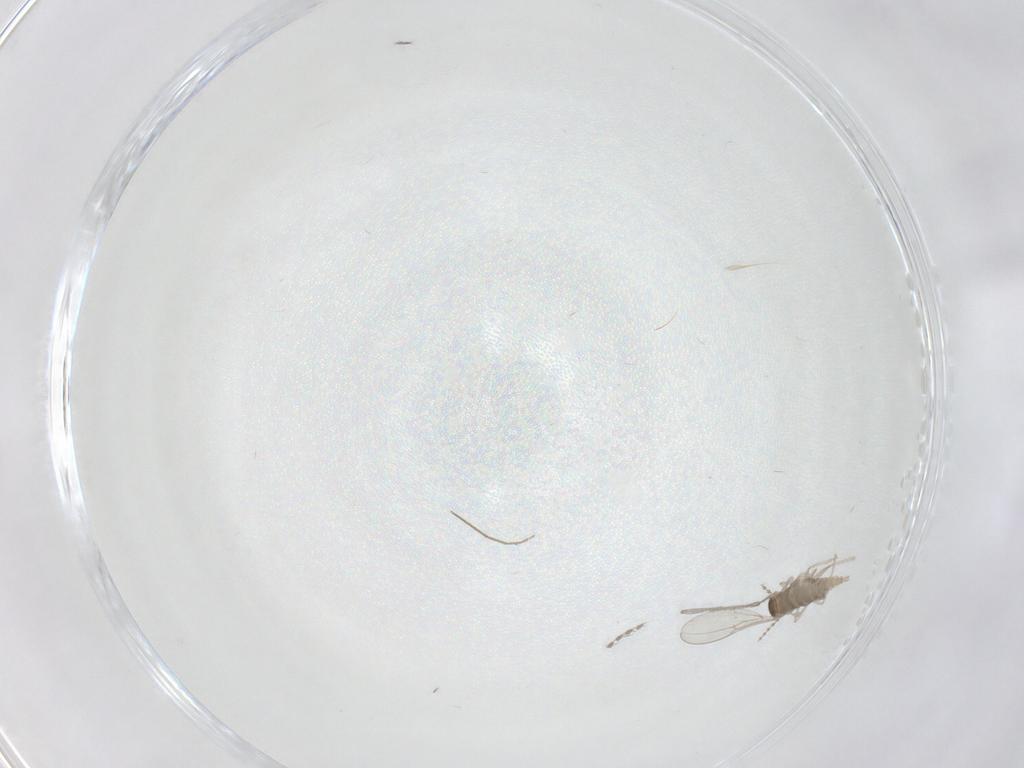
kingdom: Animalia
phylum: Arthropoda
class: Insecta
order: Diptera
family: Cecidomyiidae
